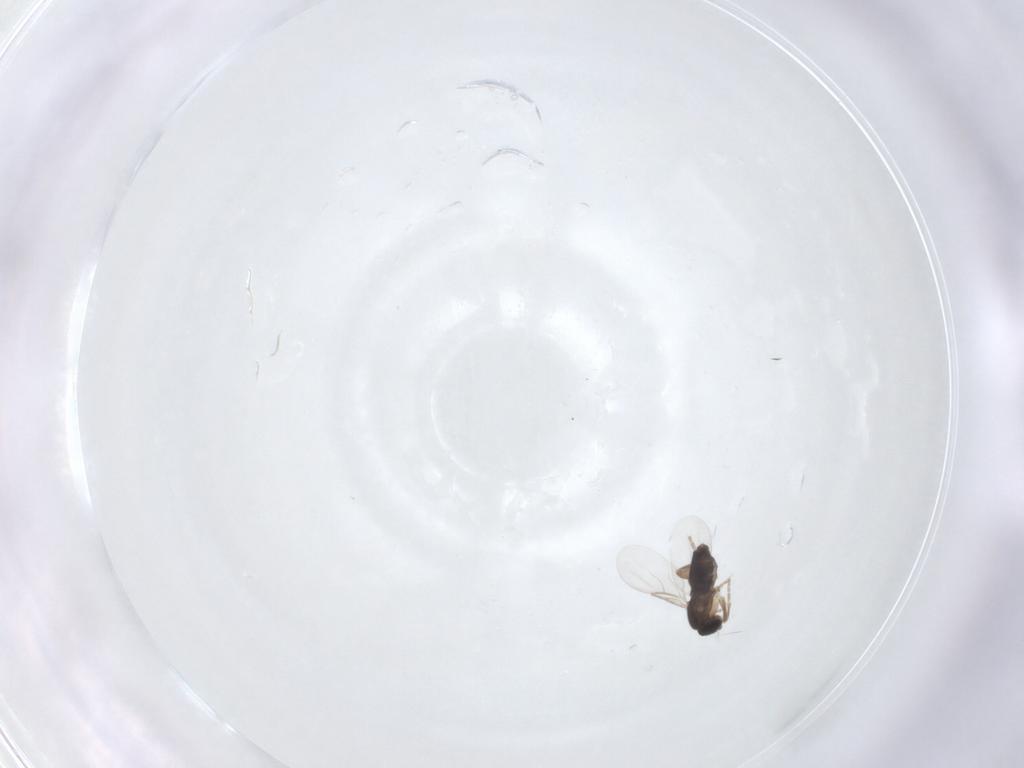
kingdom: Animalia
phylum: Arthropoda
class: Insecta
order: Diptera
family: Phoridae
